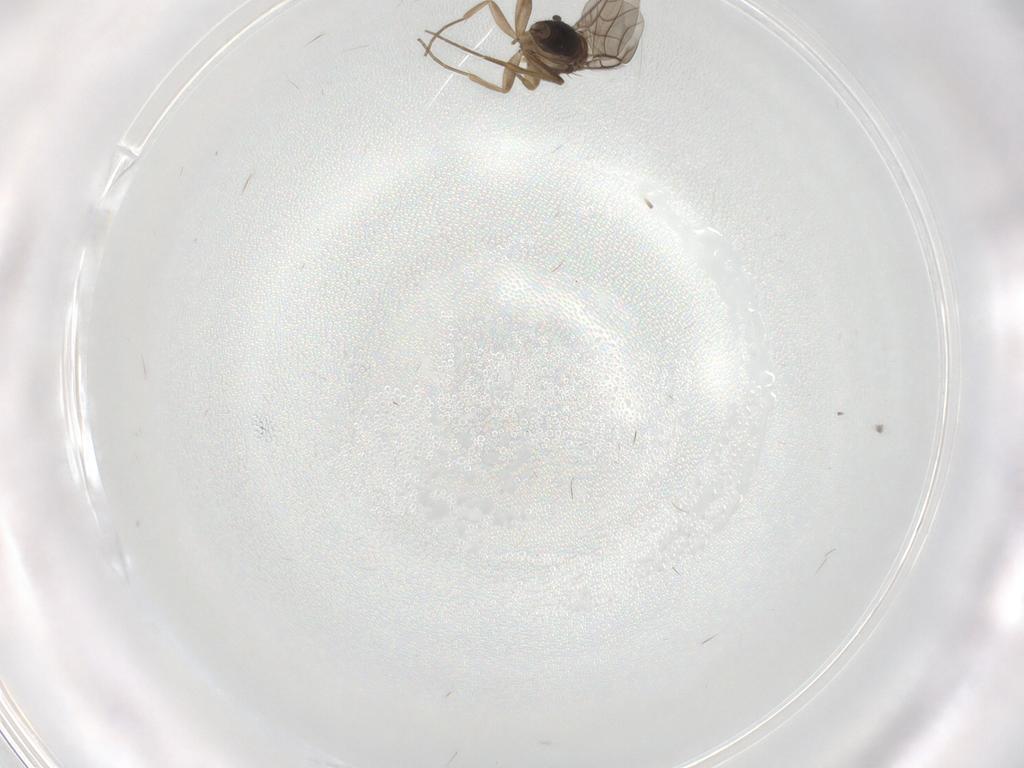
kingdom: Animalia
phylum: Arthropoda
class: Insecta
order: Diptera
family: Phoridae
